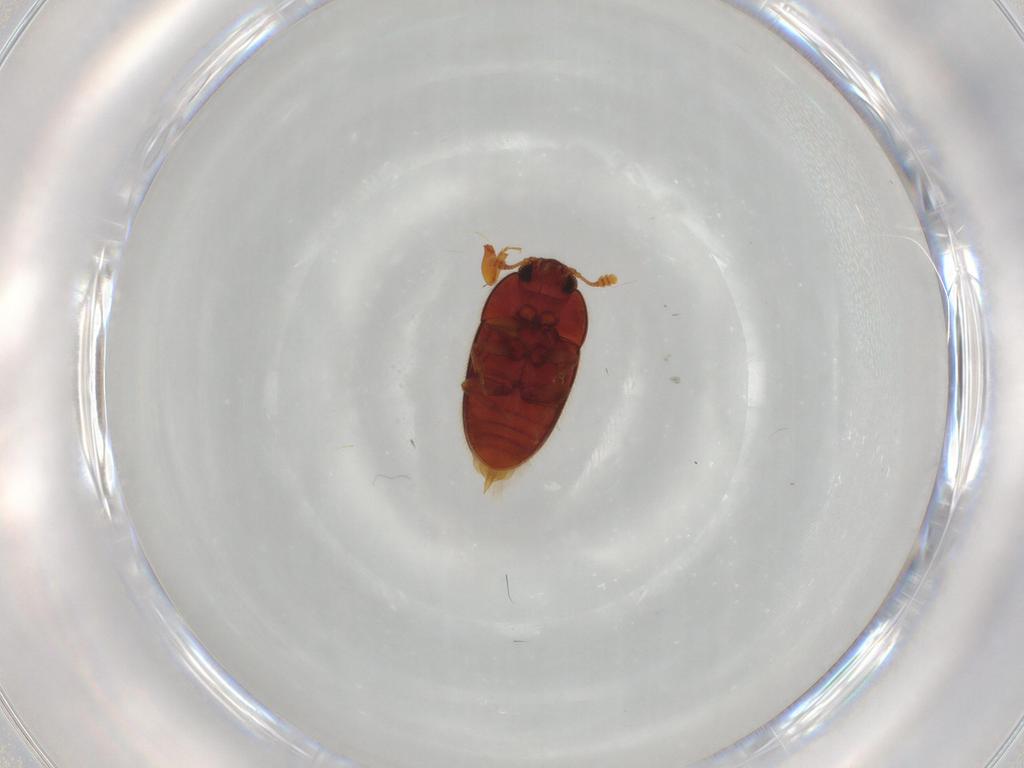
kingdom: Animalia
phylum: Arthropoda
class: Insecta
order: Coleoptera
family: Biphyllidae
